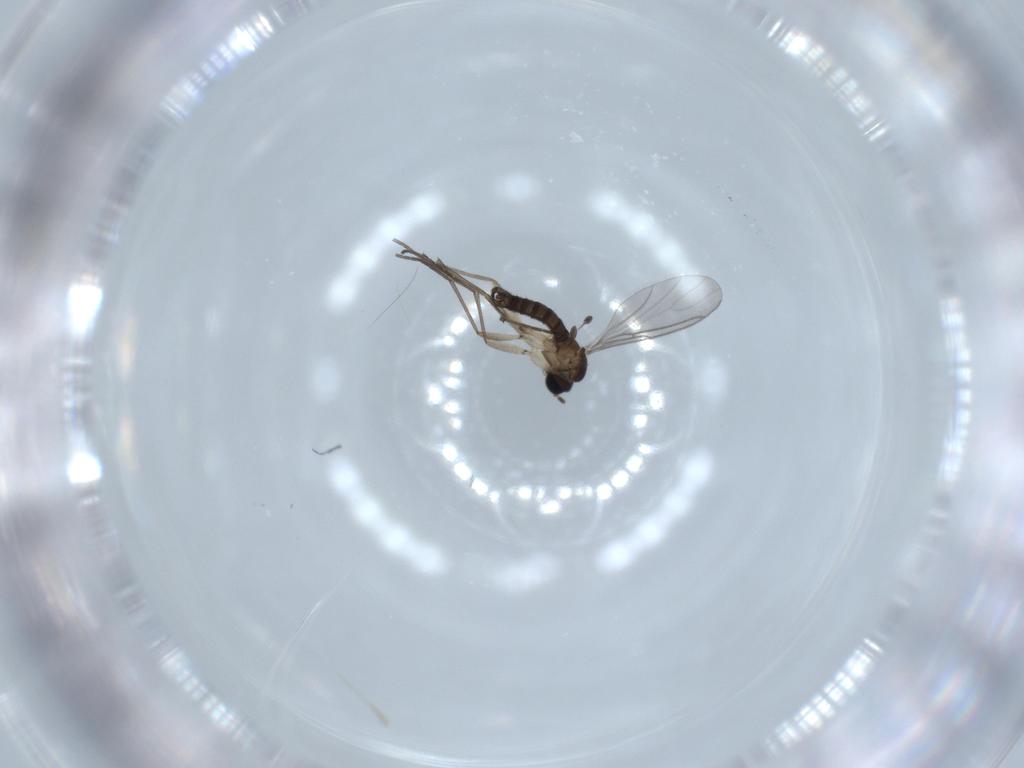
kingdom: Animalia
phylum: Arthropoda
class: Insecta
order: Diptera
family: Sciaridae
